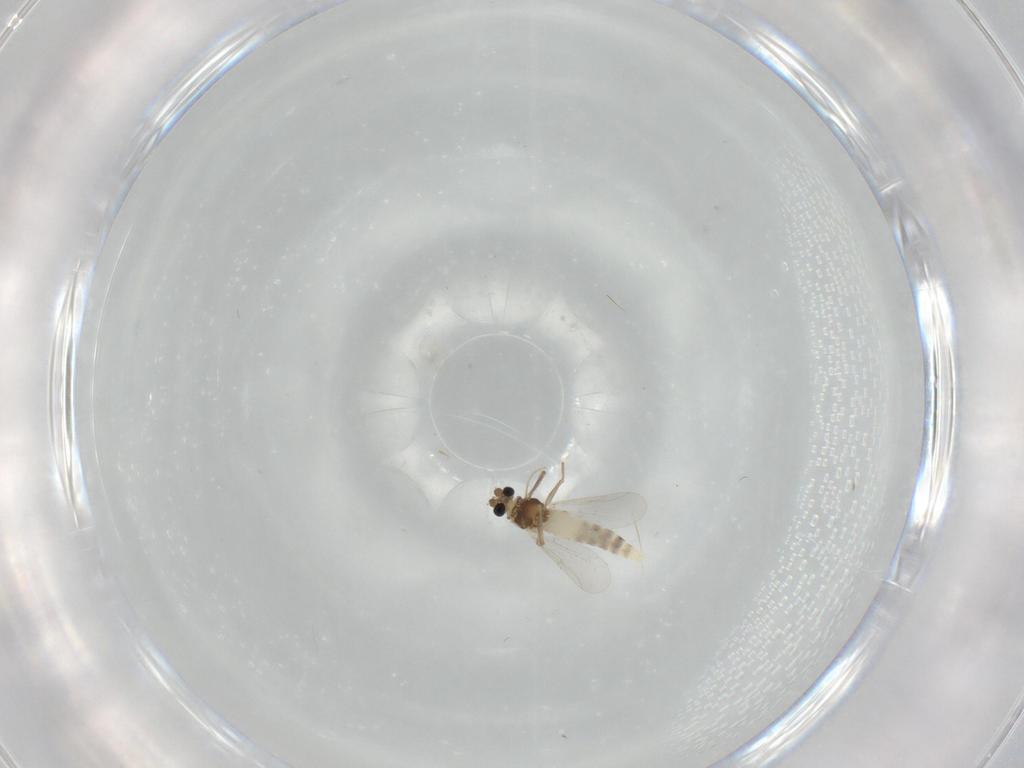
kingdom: Animalia
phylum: Arthropoda
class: Insecta
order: Diptera
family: Chironomidae
